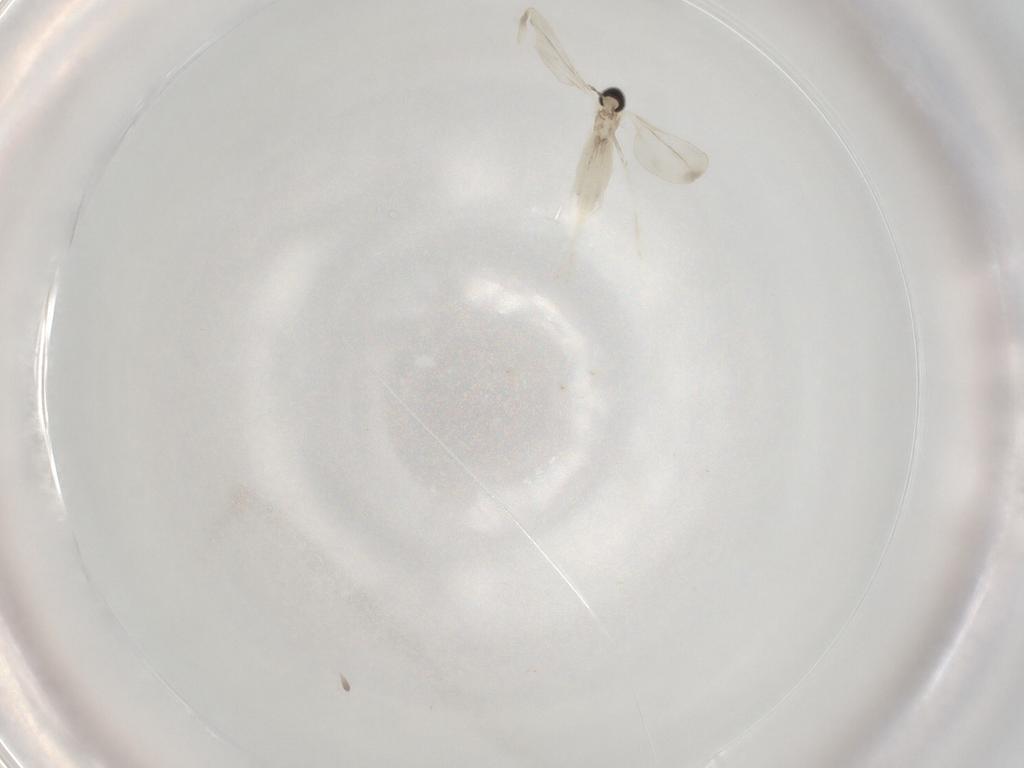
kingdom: Animalia
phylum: Arthropoda
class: Insecta
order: Diptera
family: Cecidomyiidae
